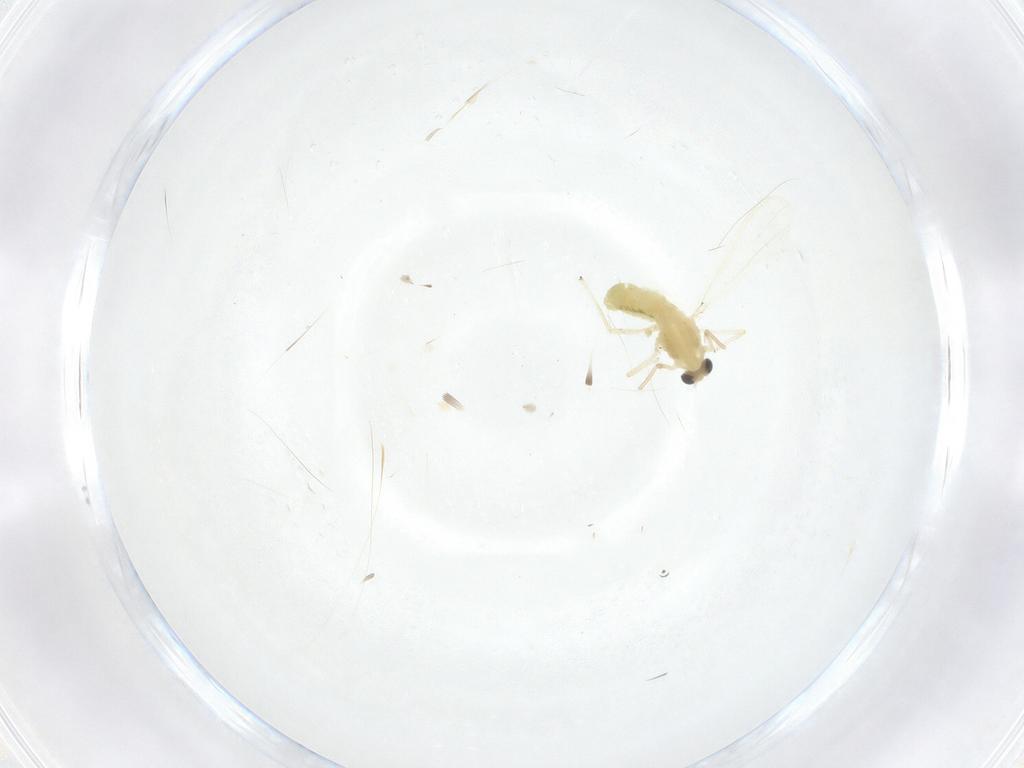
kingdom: Animalia
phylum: Arthropoda
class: Insecta
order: Diptera
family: Chironomidae
